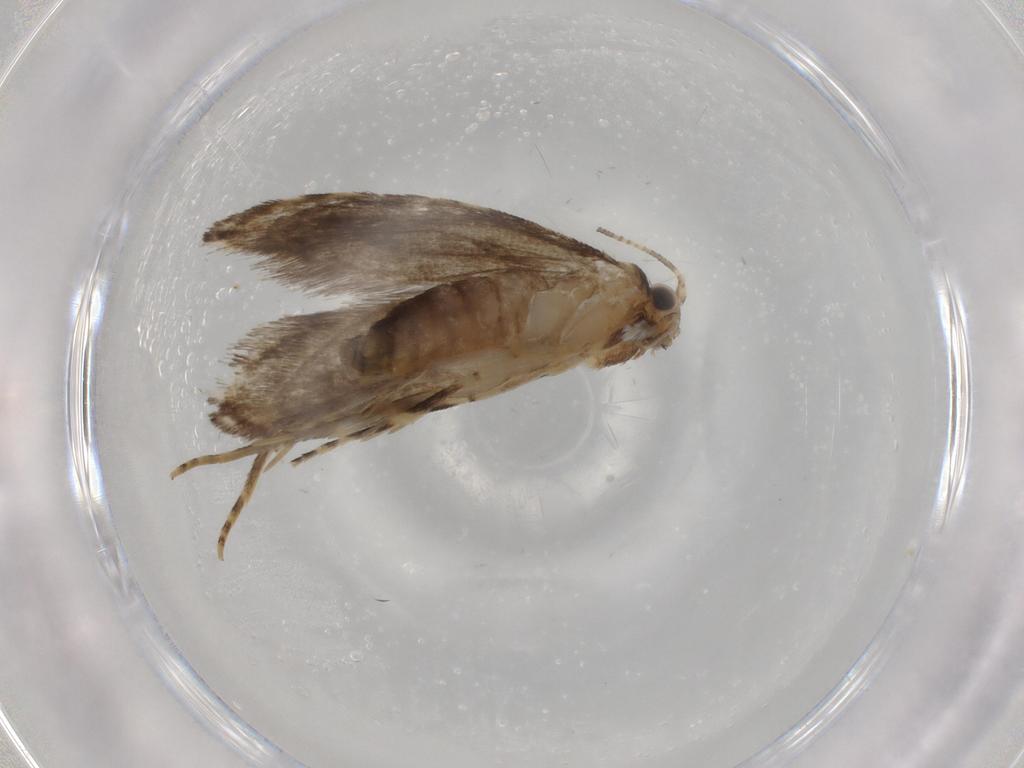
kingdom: Animalia
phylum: Arthropoda
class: Insecta
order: Lepidoptera
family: Tineidae
